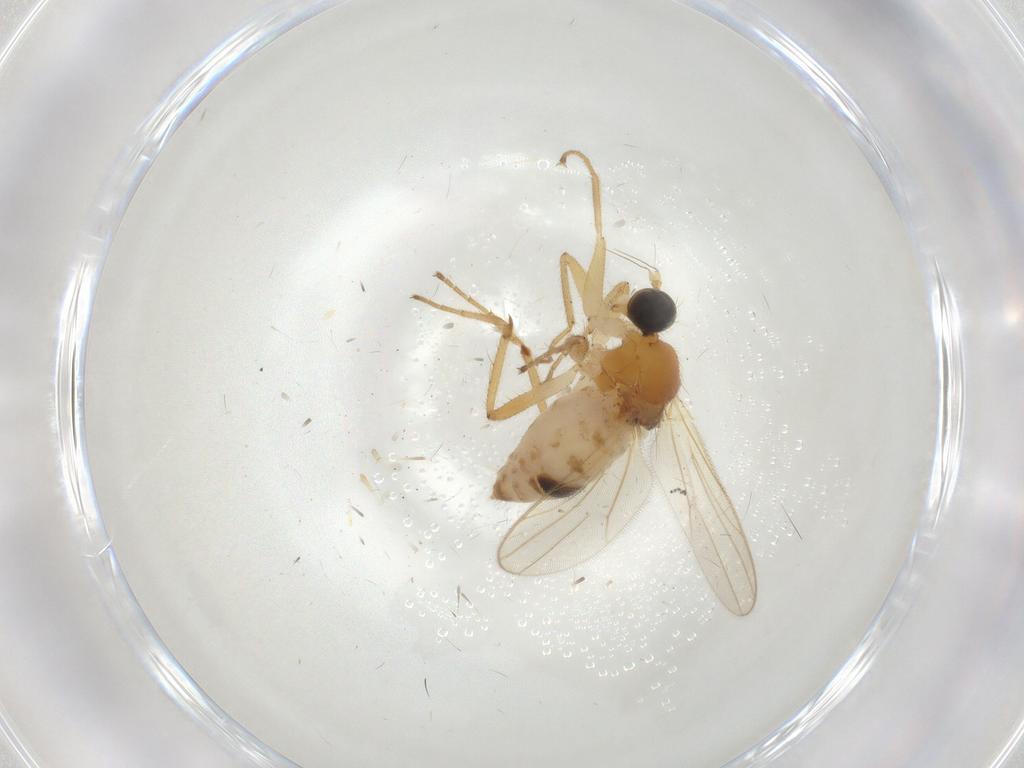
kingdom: Animalia
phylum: Arthropoda
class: Insecta
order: Diptera
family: Hybotidae
